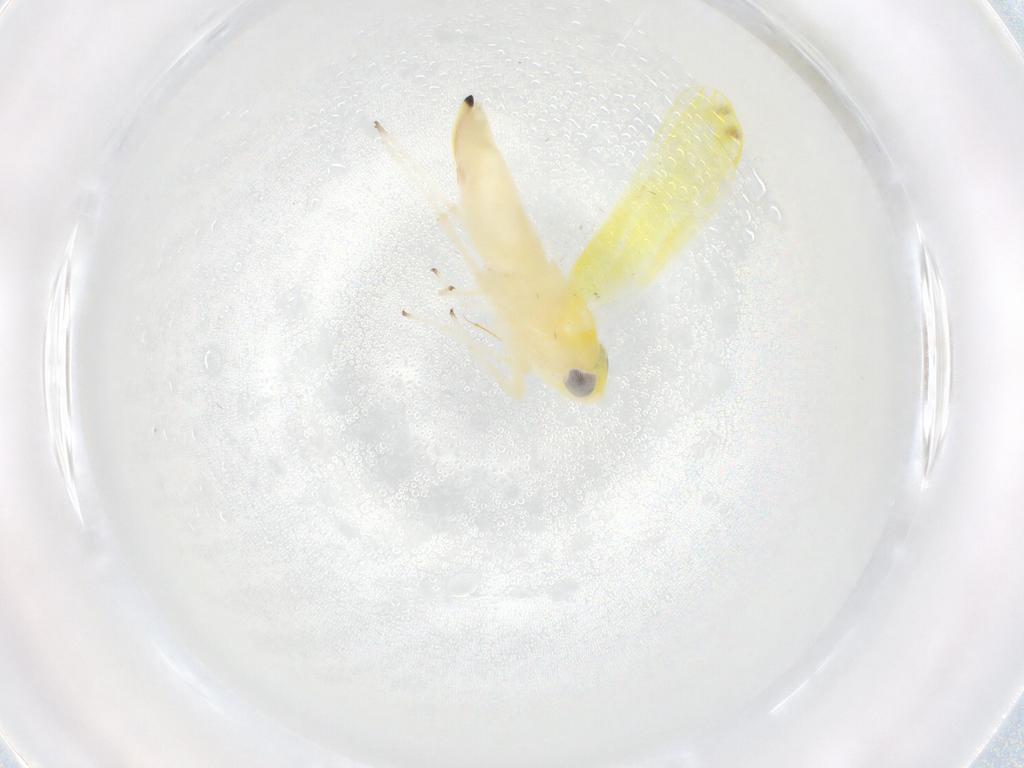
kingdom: Animalia
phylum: Arthropoda
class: Insecta
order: Hemiptera
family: Cicadellidae
